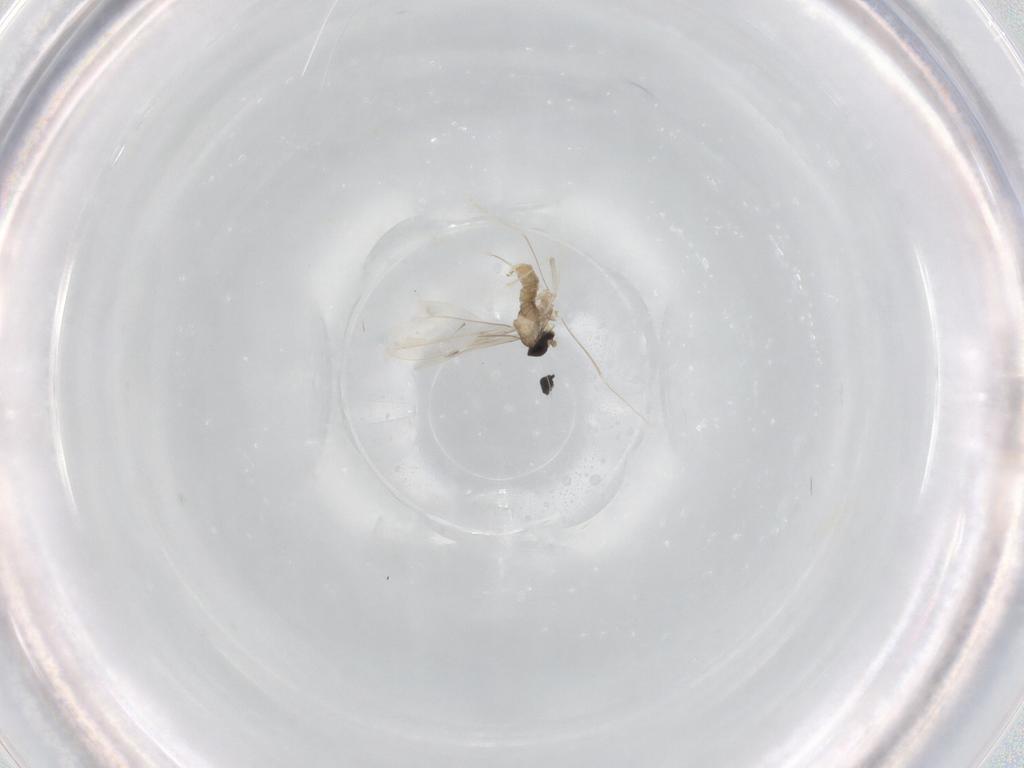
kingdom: Animalia
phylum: Arthropoda
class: Insecta
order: Diptera
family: Cecidomyiidae
